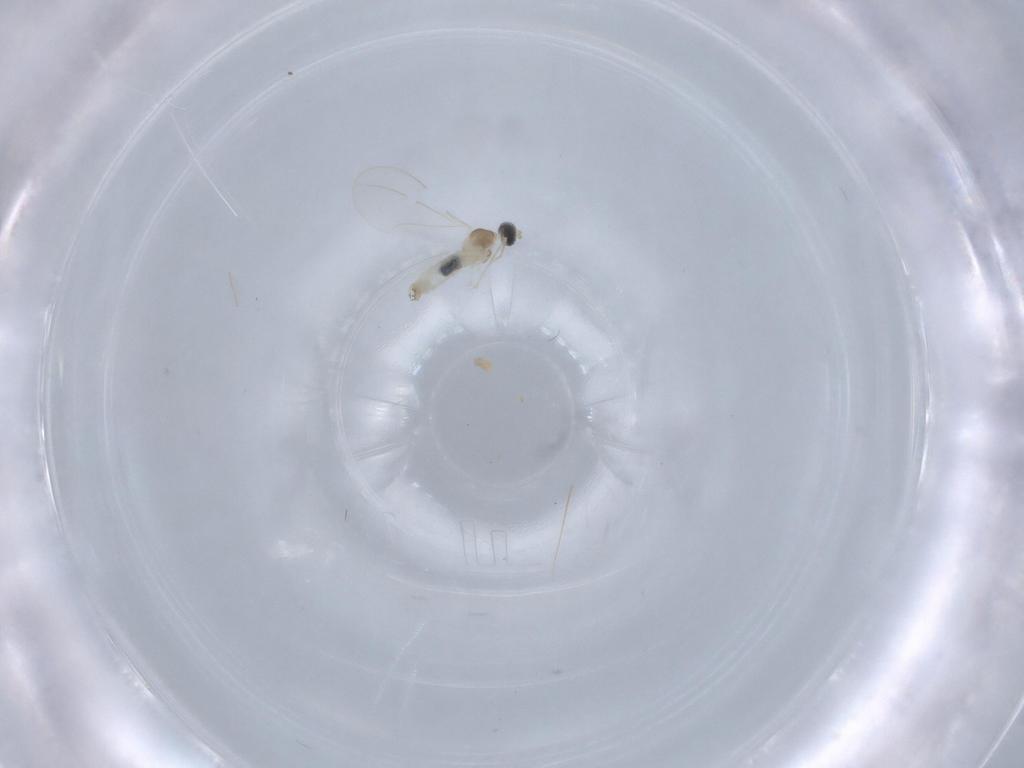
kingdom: Animalia
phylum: Arthropoda
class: Insecta
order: Diptera
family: Cecidomyiidae
